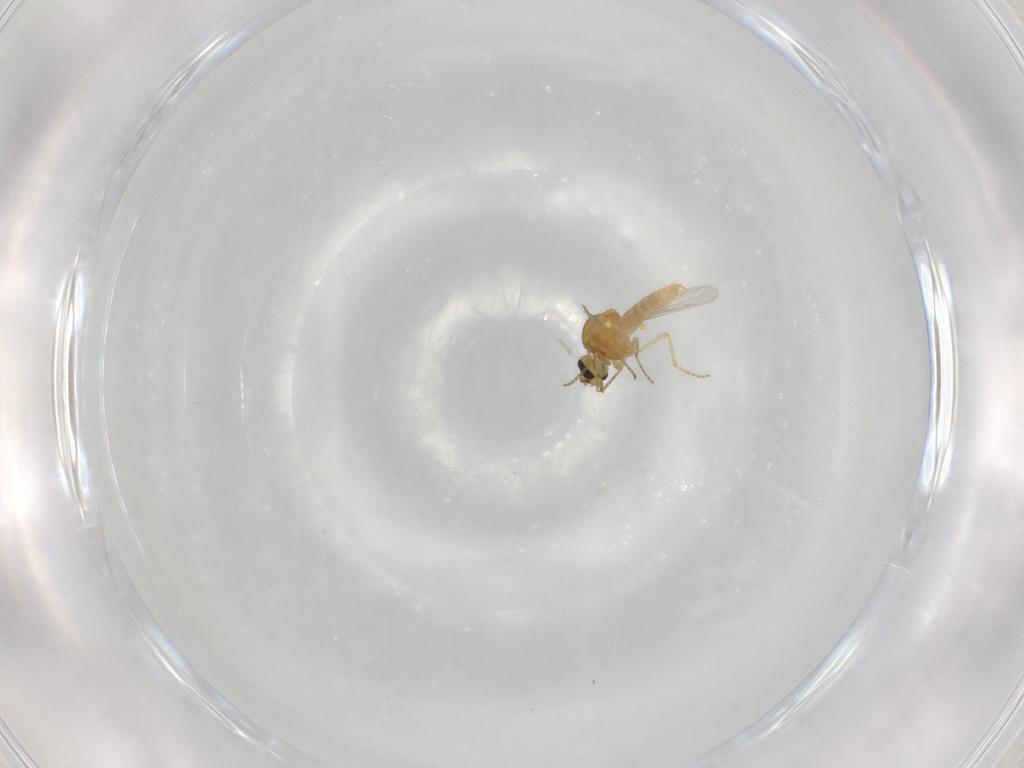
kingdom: Animalia
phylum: Arthropoda
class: Insecta
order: Diptera
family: Ceratopogonidae
